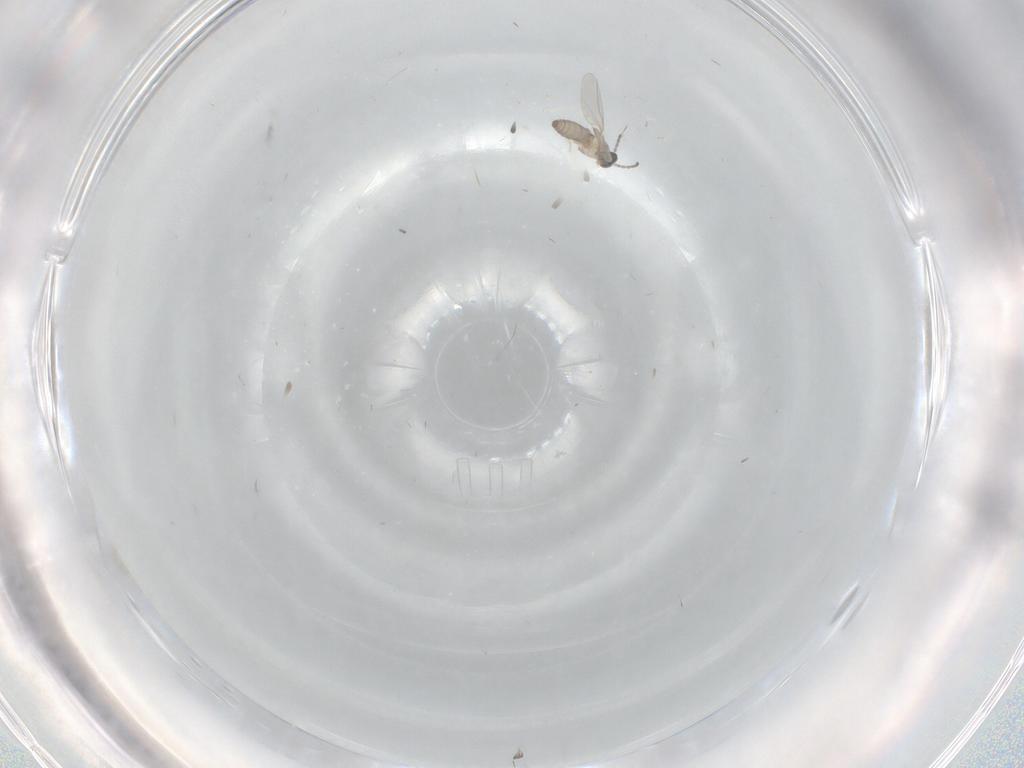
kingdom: Animalia
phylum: Arthropoda
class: Insecta
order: Diptera
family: Cecidomyiidae
